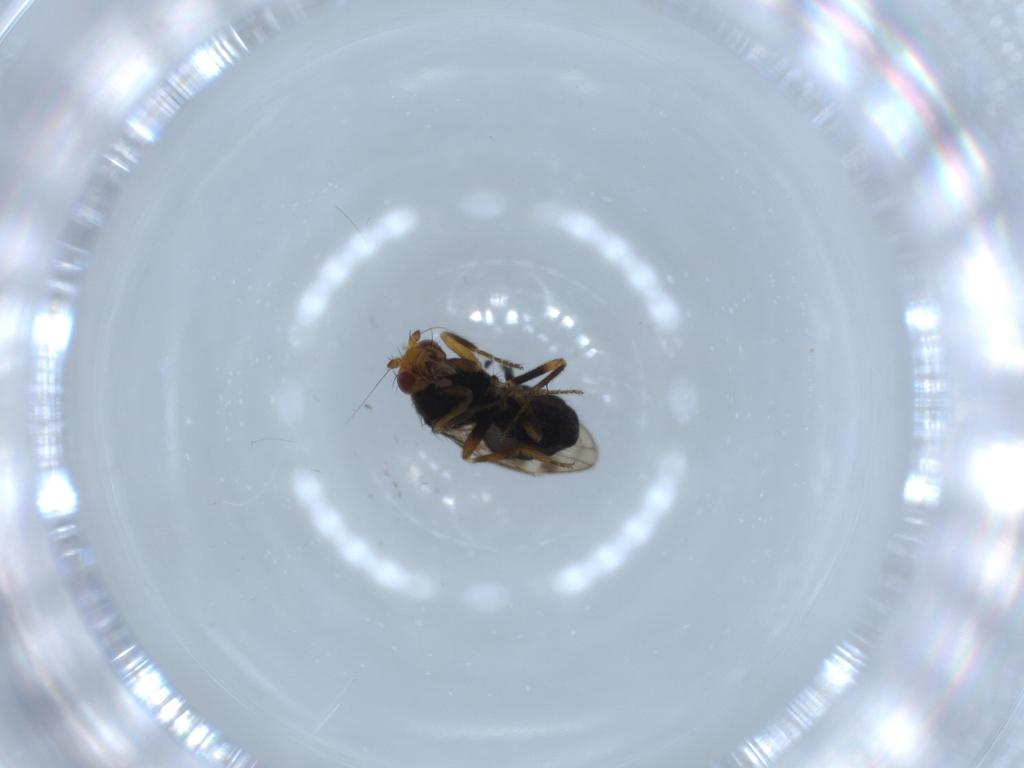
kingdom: Animalia
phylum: Arthropoda
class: Insecta
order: Diptera
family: Sphaeroceridae
